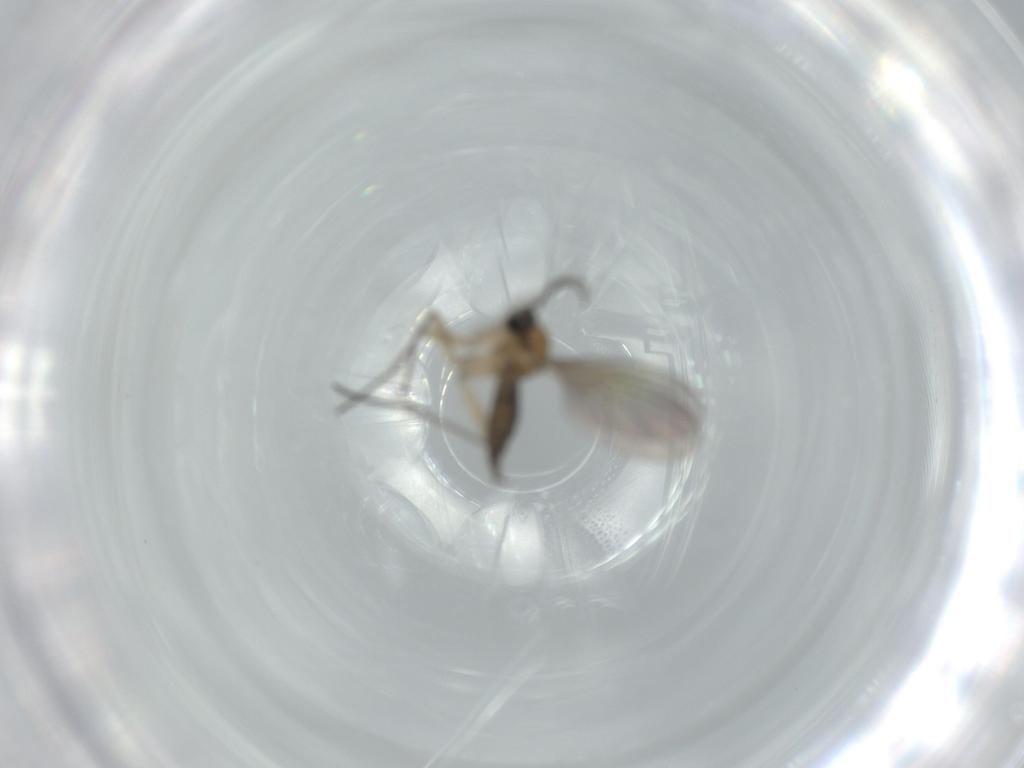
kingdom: Animalia
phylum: Arthropoda
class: Insecta
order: Diptera
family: Sciaridae
